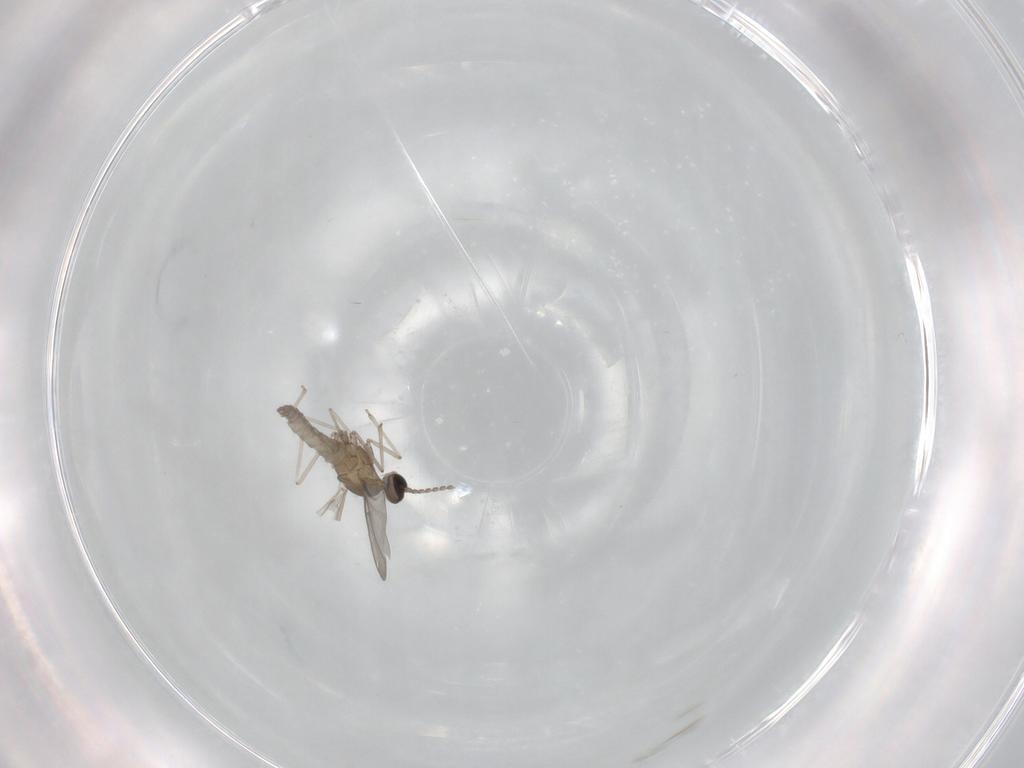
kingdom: Animalia
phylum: Arthropoda
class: Insecta
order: Diptera
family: Cecidomyiidae
